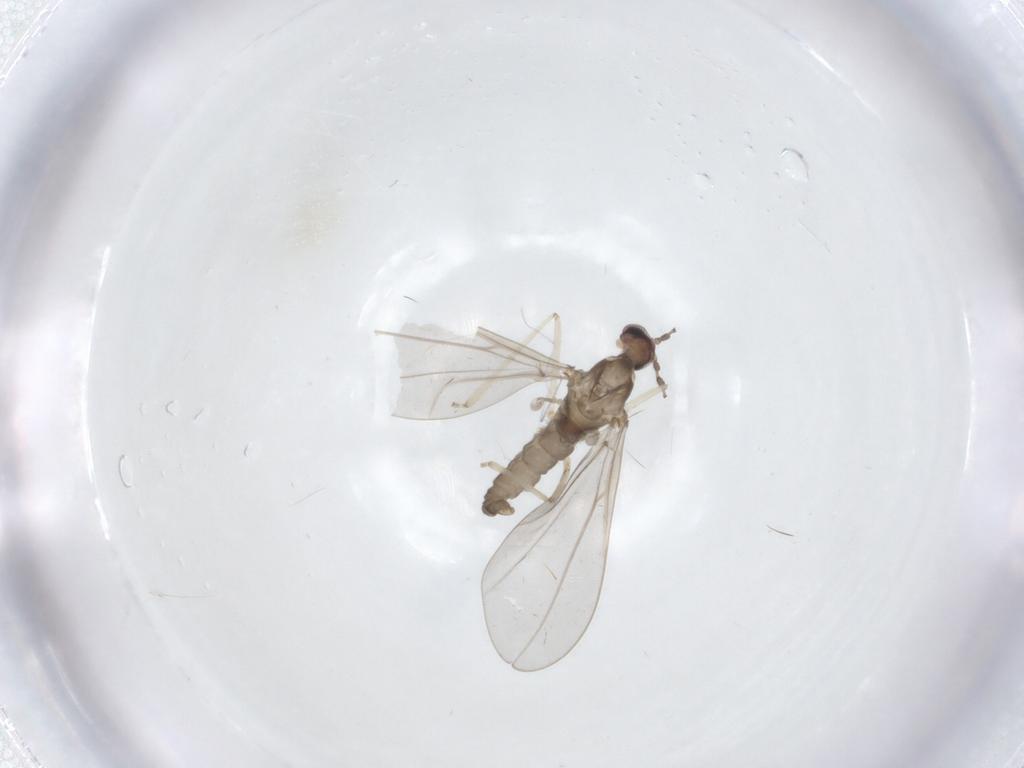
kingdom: Animalia
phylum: Arthropoda
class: Insecta
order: Diptera
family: Cecidomyiidae
